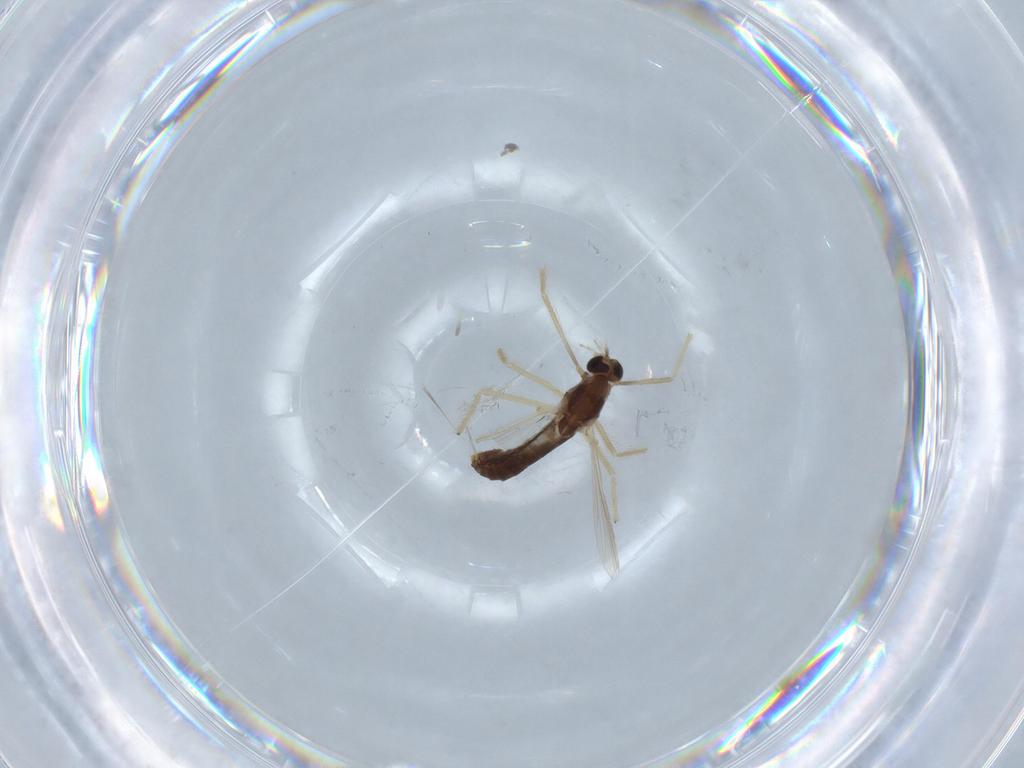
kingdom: Animalia
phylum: Arthropoda
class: Insecta
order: Diptera
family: Chironomidae
